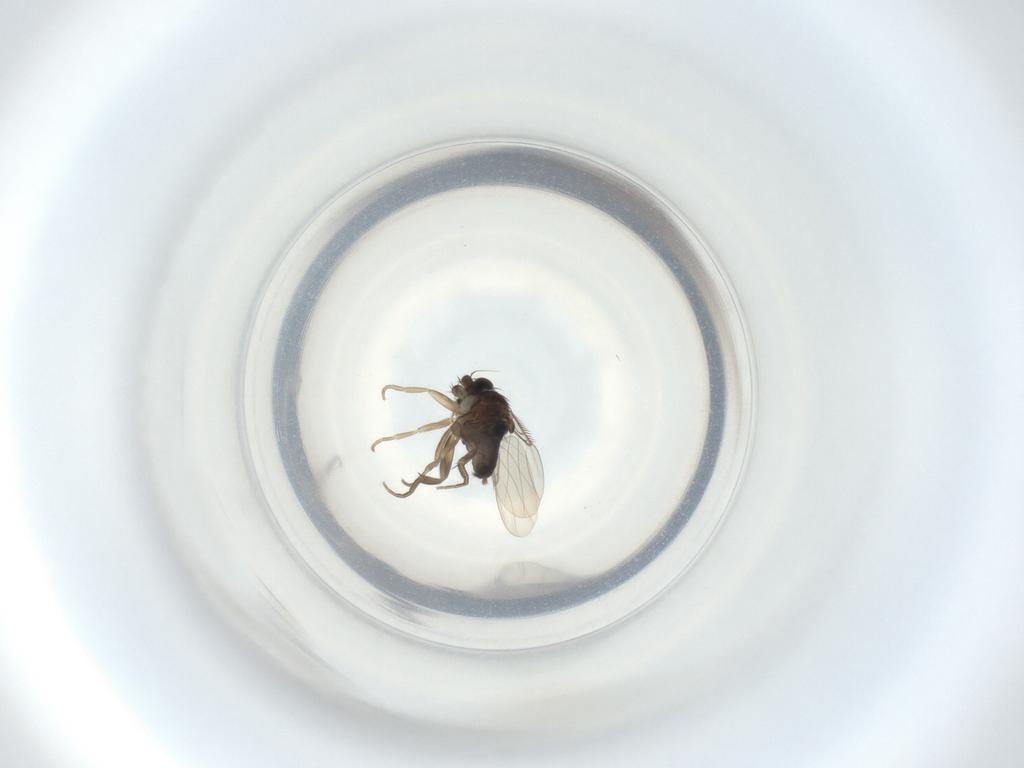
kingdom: Animalia
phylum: Arthropoda
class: Insecta
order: Diptera
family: Phoridae
